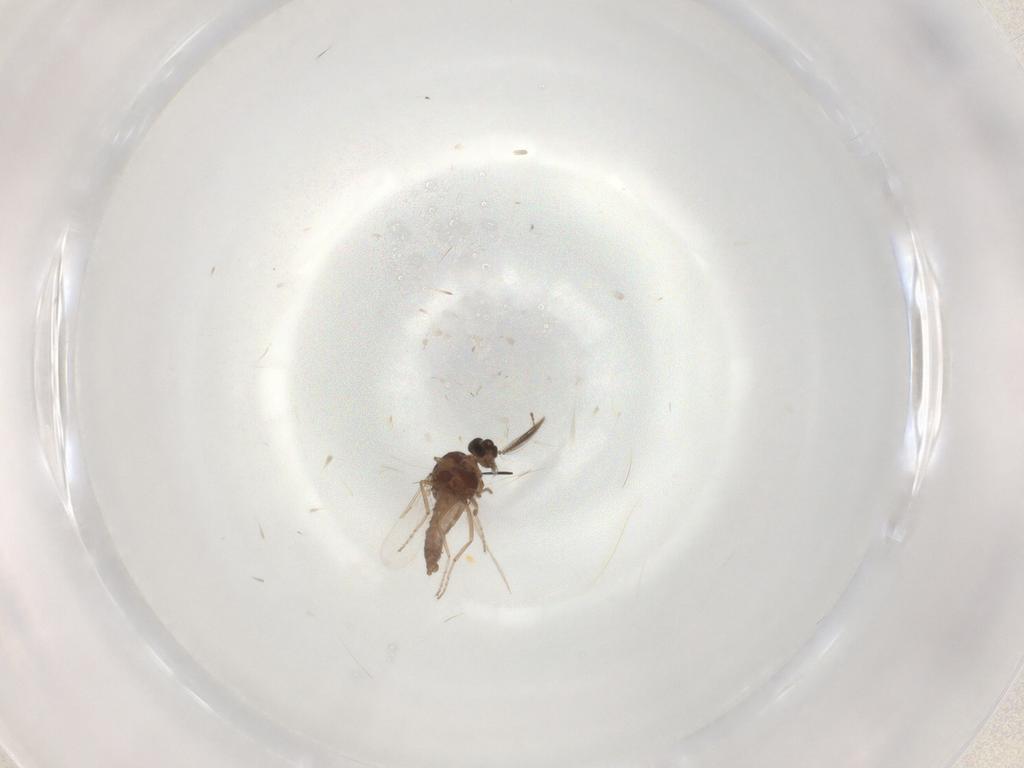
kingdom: Animalia
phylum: Arthropoda
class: Insecta
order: Diptera
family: Ceratopogonidae
